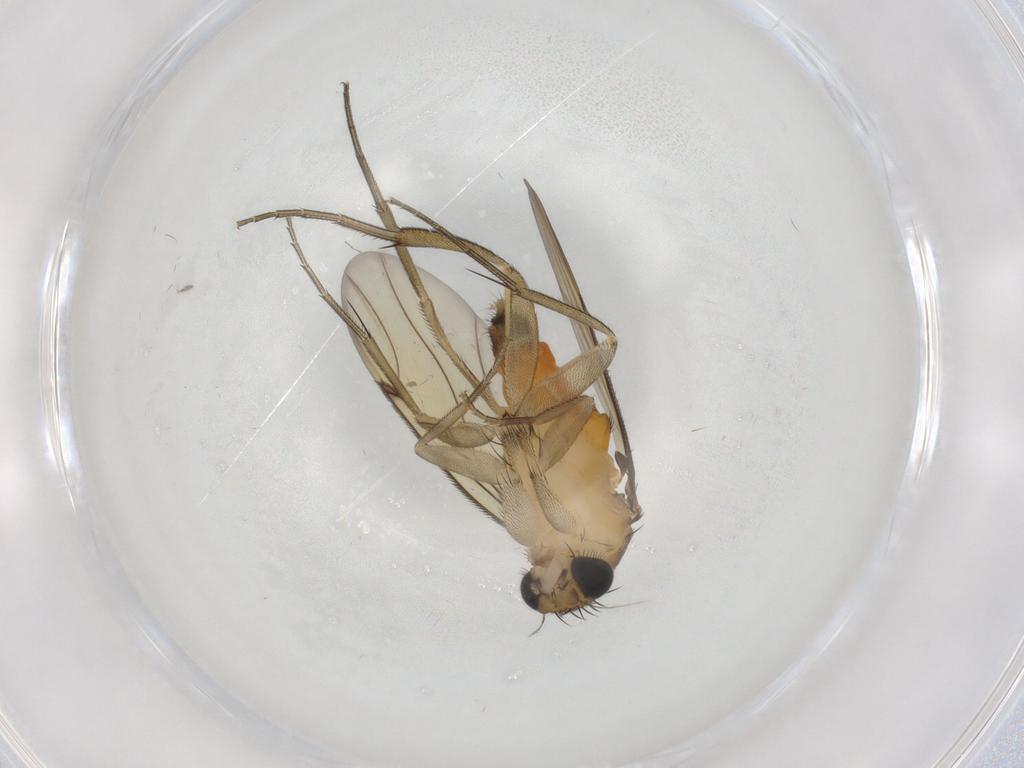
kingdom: Animalia
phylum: Arthropoda
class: Insecta
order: Diptera
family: Phoridae
